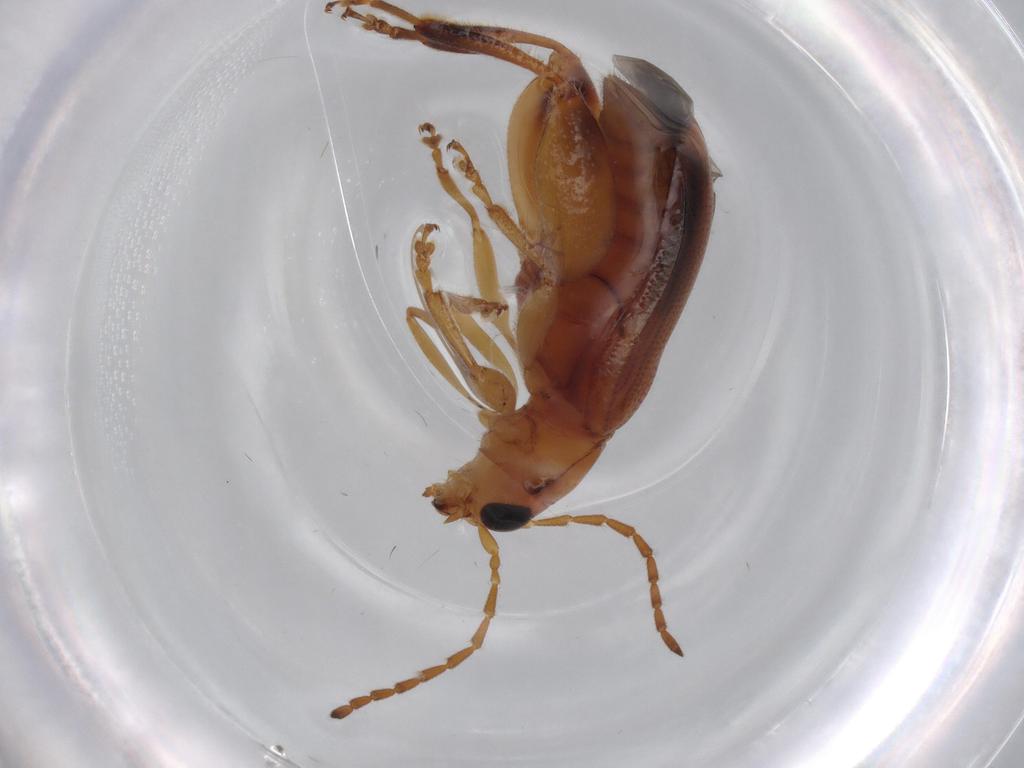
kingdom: Animalia
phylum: Arthropoda
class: Insecta
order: Coleoptera
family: Chrysomelidae
